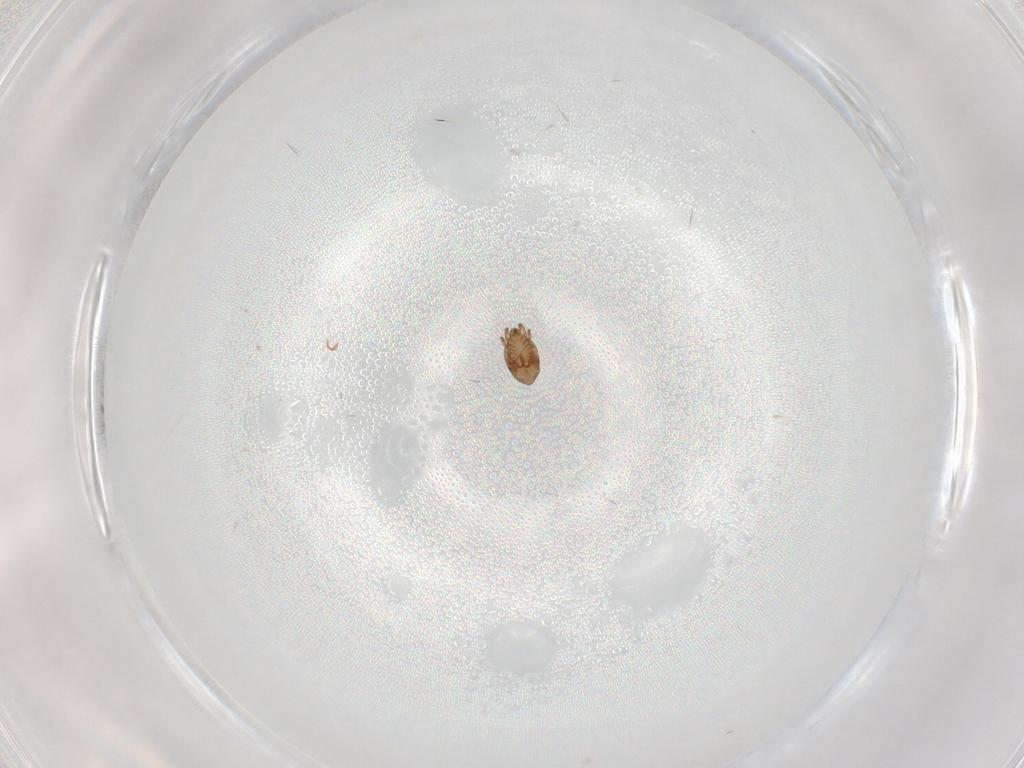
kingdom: Animalia
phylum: Arthropoda
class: Arachnida
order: Sarcoptiformes
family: Humerobatidae
